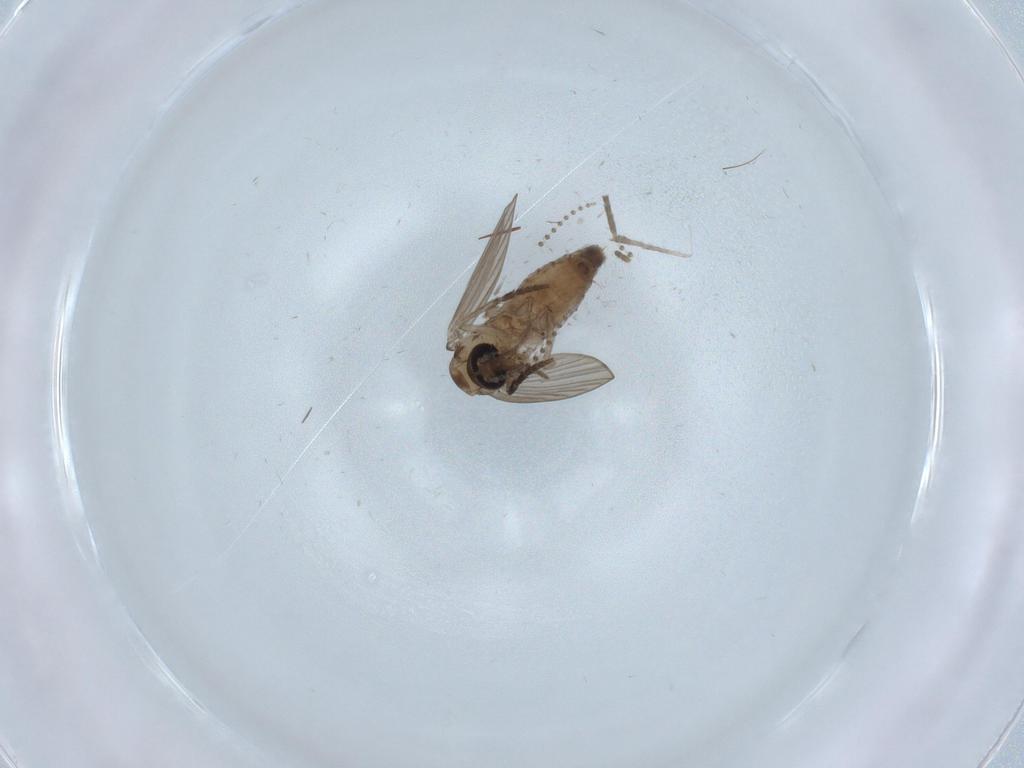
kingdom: Animalia
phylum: Arthropoda
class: Insecta
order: Diptera
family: Psychodidae
